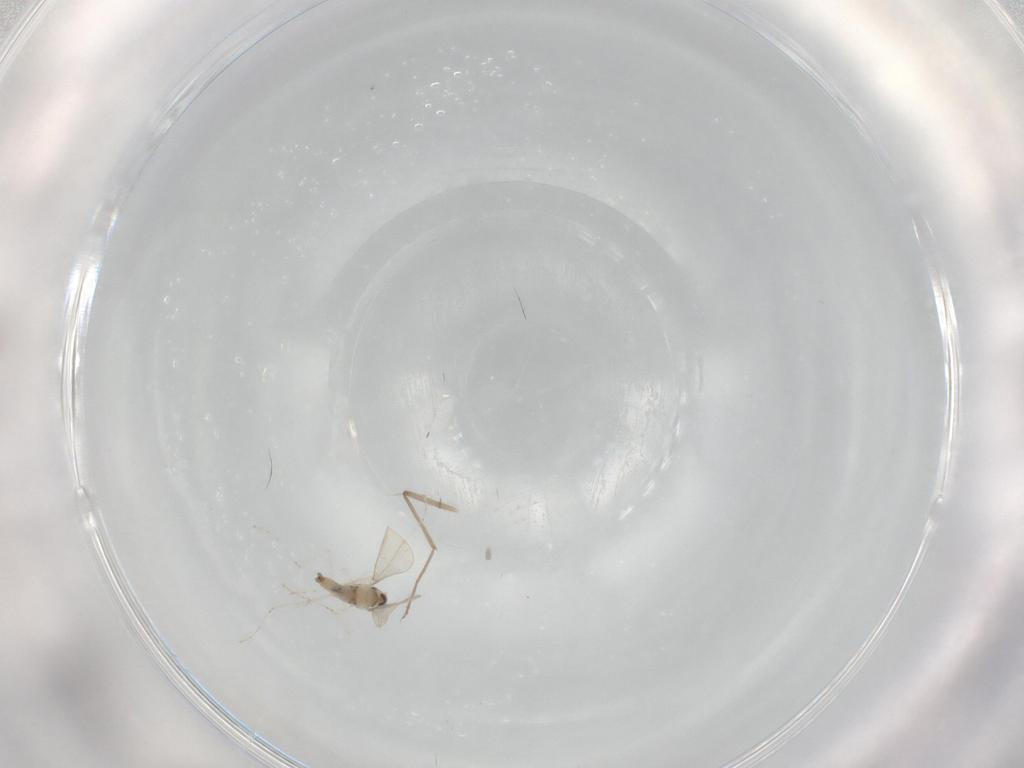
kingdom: Animalia
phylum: Arthropoda
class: Insecta
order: Diptera
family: Cecidomyiidae
